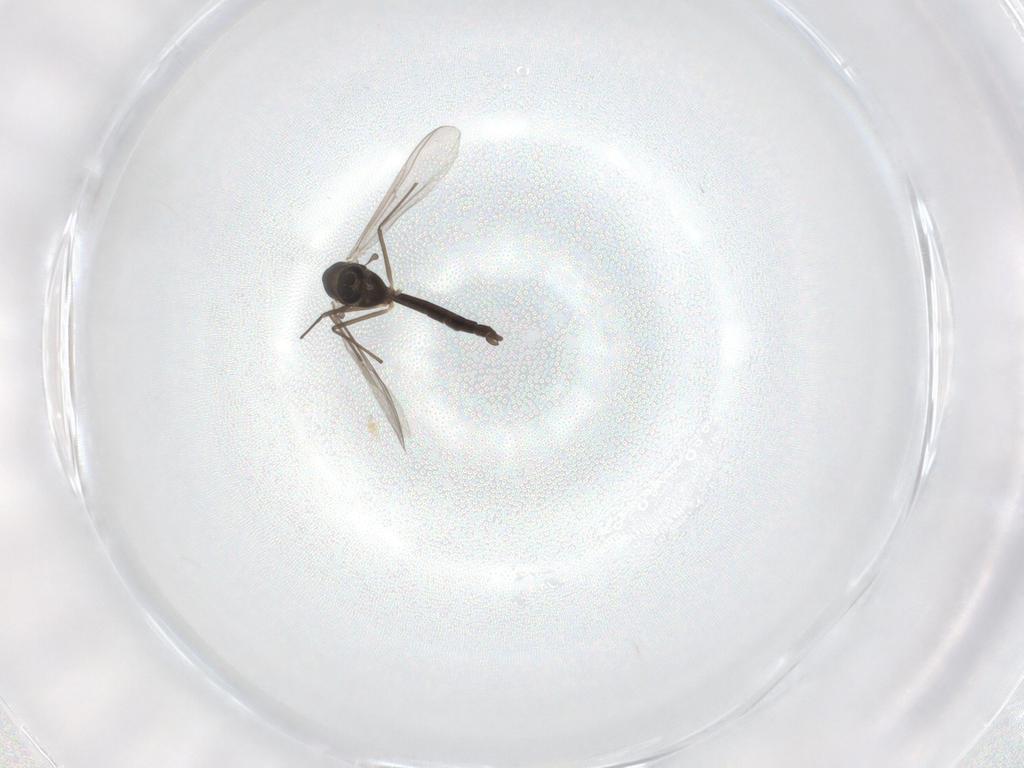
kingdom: Animalia
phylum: Arthropoda
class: Insecta
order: Diptera
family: Chironomidae
